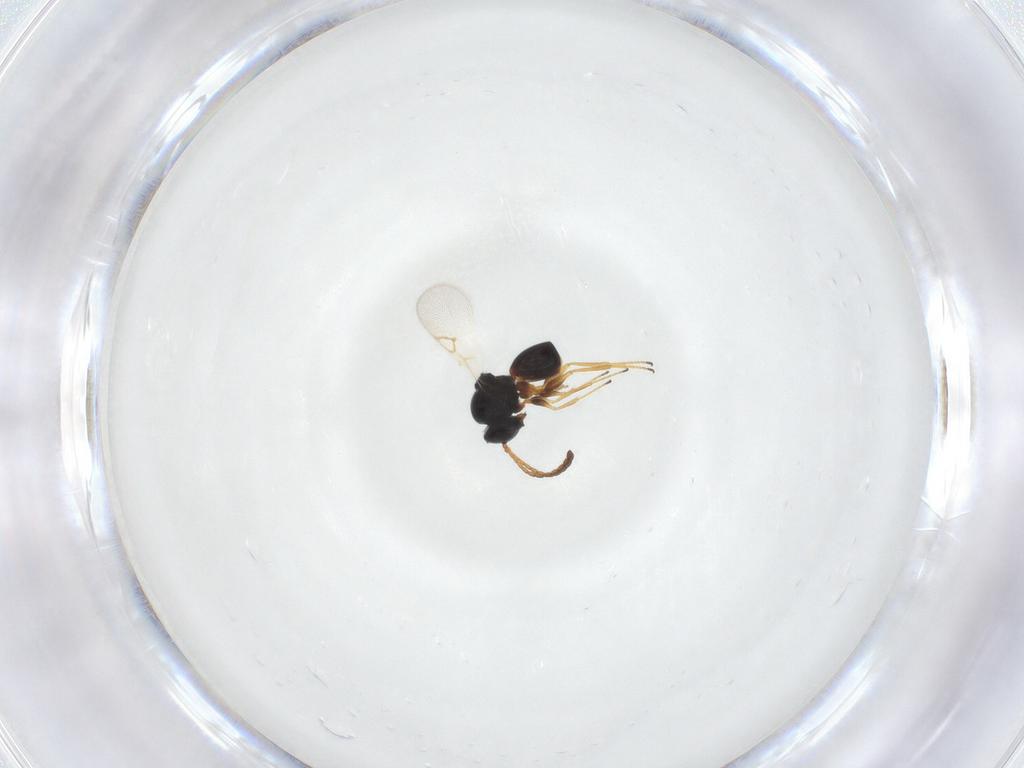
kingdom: Animalia
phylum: Arthropoda
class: Insecta
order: Hymenoptera
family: Figitidae
